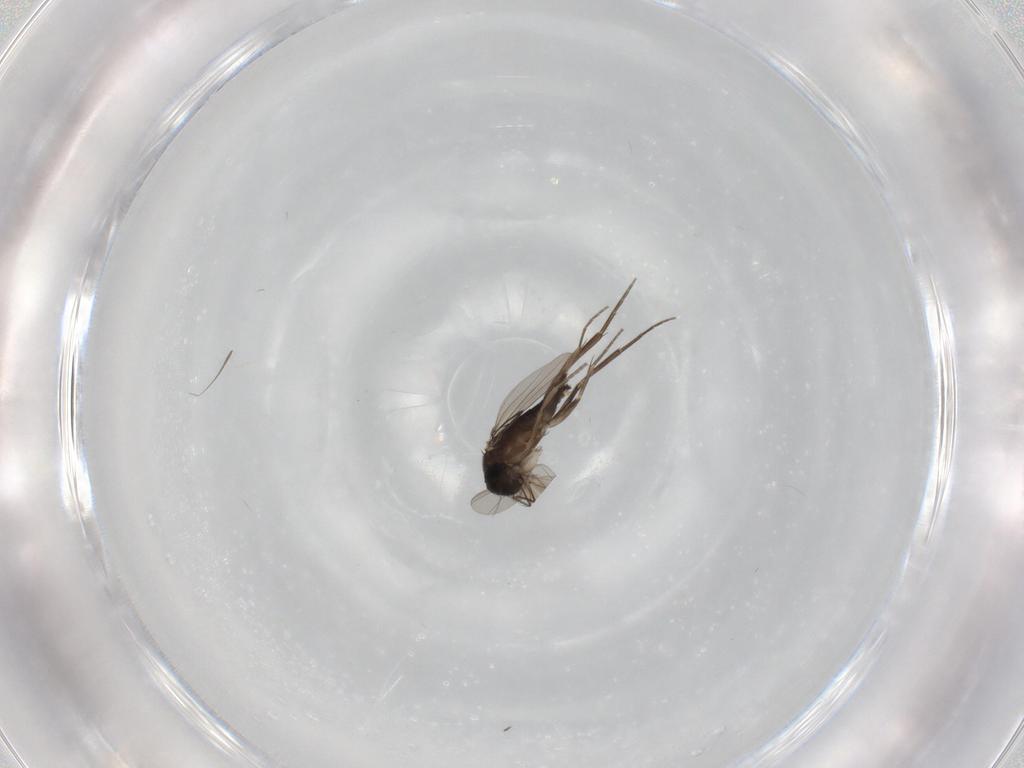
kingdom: Animalia
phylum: Arthropoda
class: Insecta
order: Diptera
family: Phoridae
